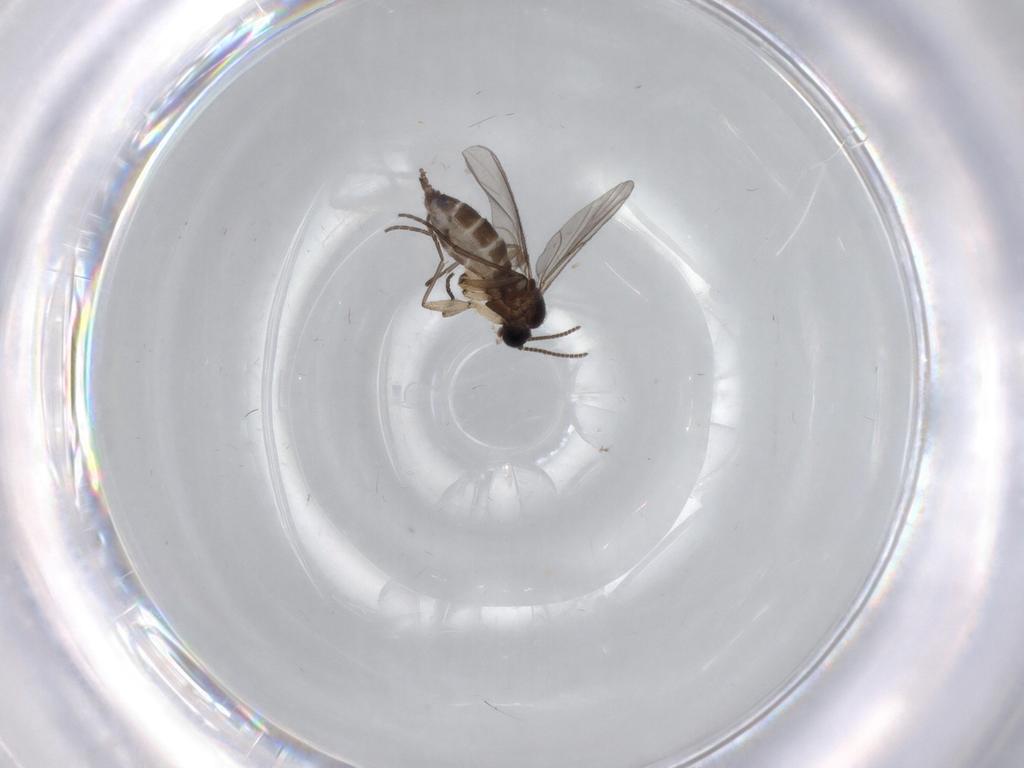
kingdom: Animalia
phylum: Arthropoda
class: Insecta
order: Diptera
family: Sciaridae
